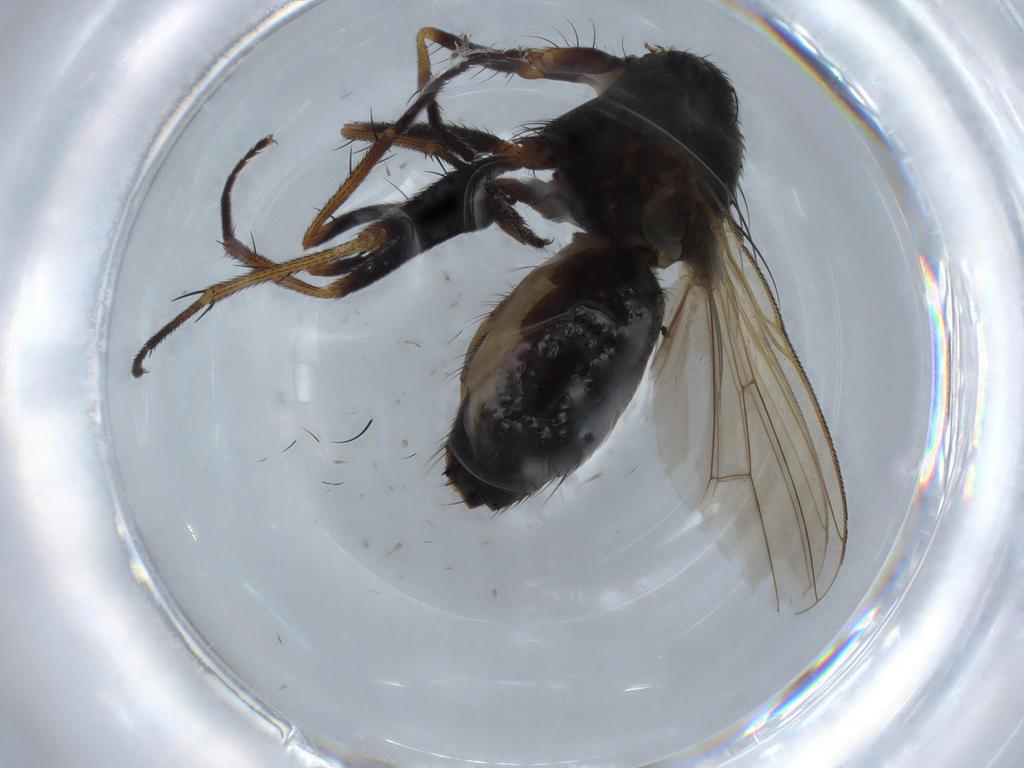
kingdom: Animalia
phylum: Arthropoda
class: Insecta
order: Diptera
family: Muscidae
